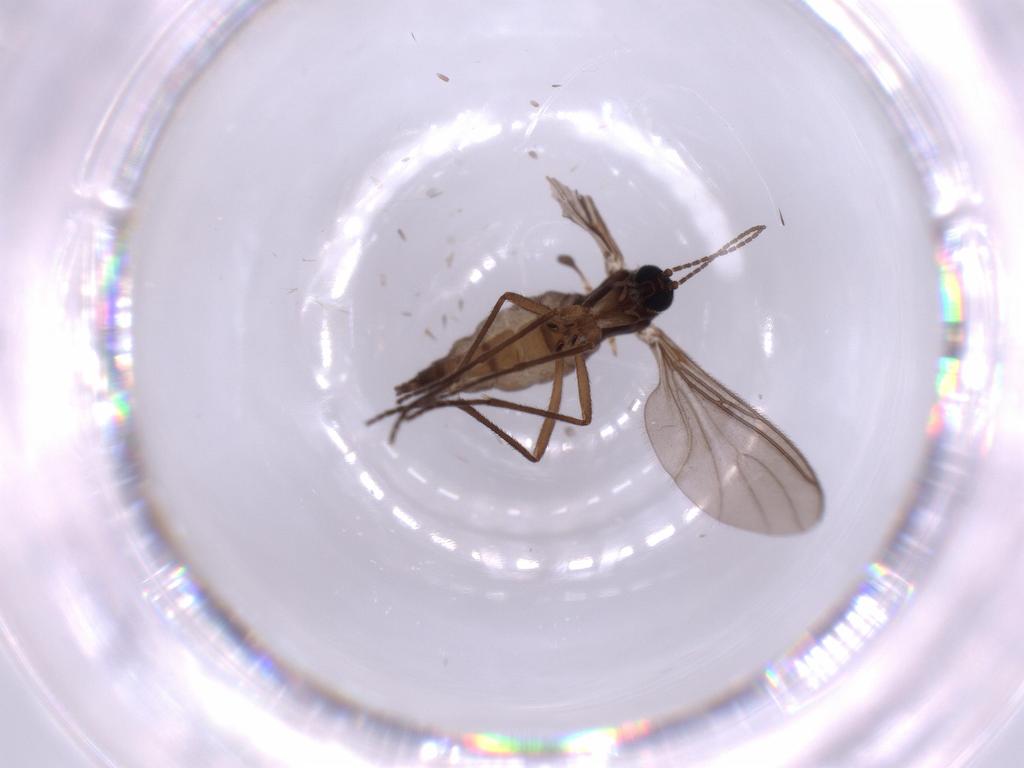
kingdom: Animalia
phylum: Arthropoda
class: Insecta
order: Diptera
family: Sciaridae
